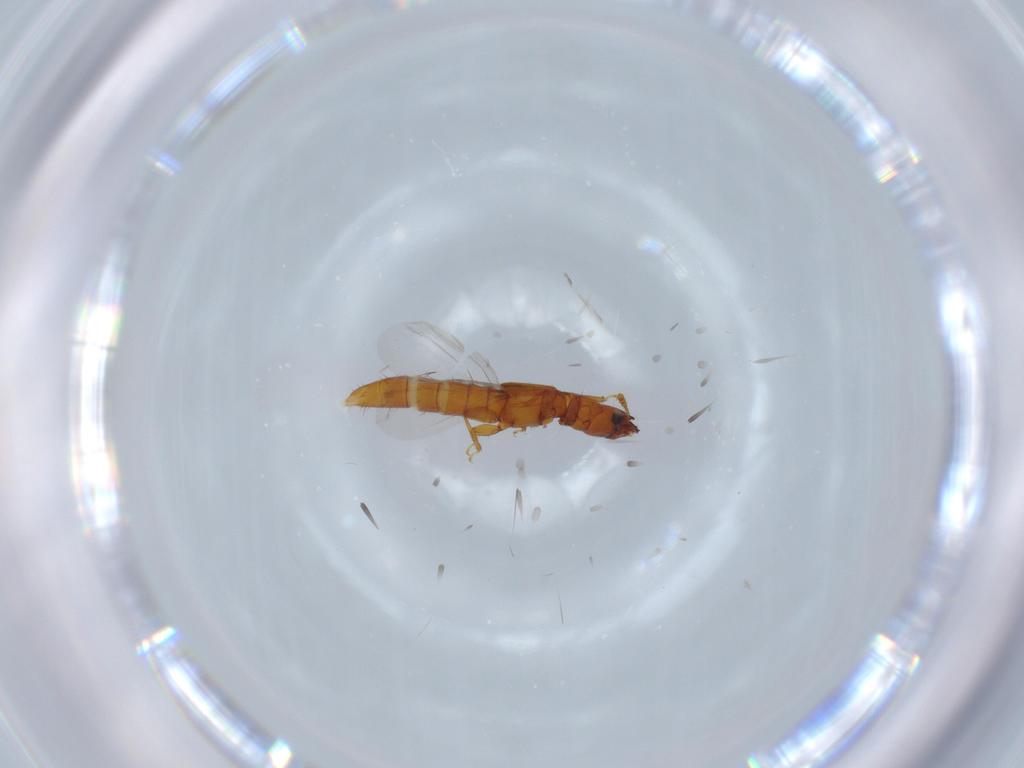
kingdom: Animalia
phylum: Arthropoda
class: Insecta
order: Coleoptera
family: Staphylinidae
